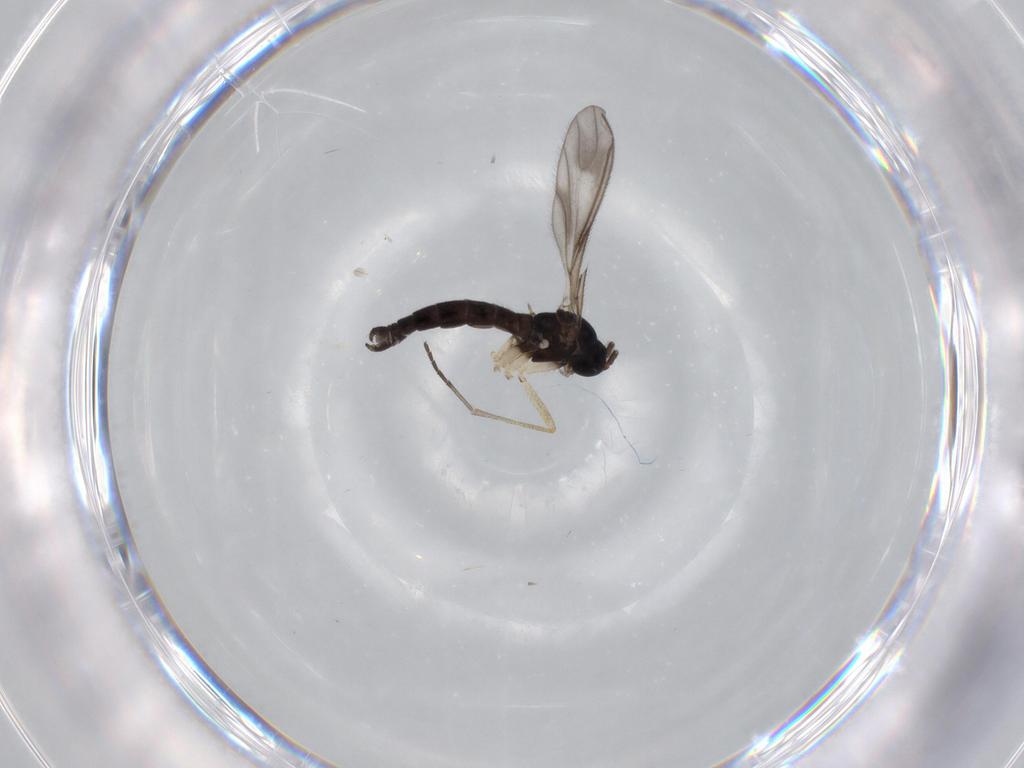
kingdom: Animalia
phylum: Arthropoda
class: Insecta
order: Diptera
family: Sciaridae
